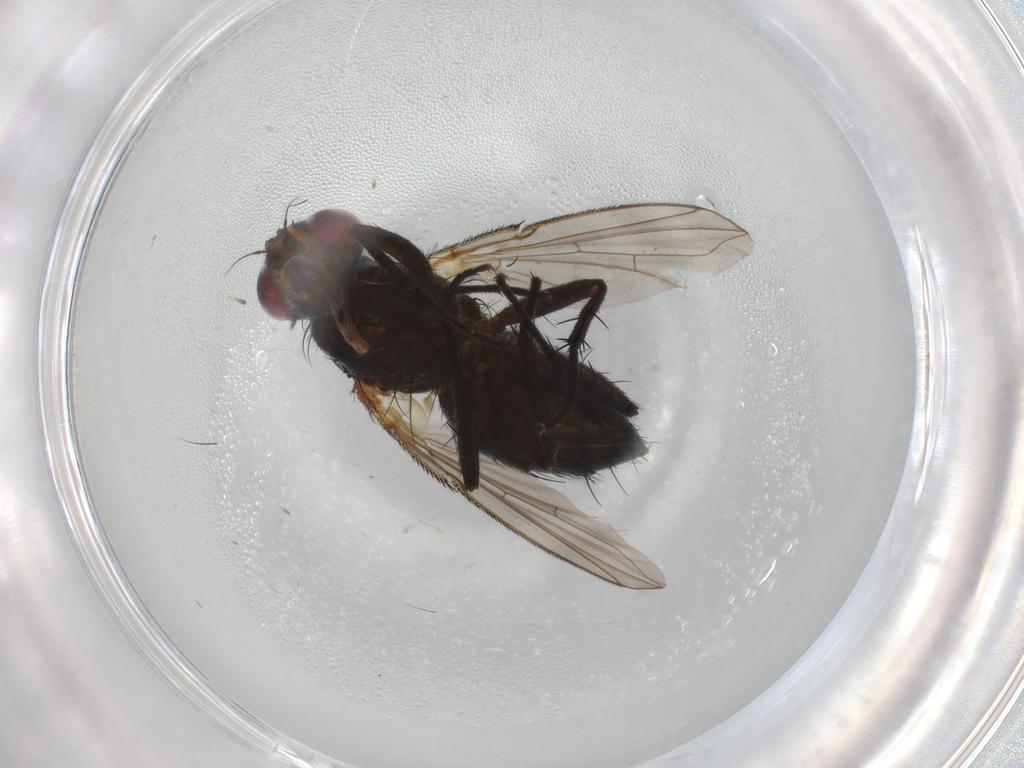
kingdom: Animalia
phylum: Arthropoda
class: Insecta
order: Diptera
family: Calliphoridae
